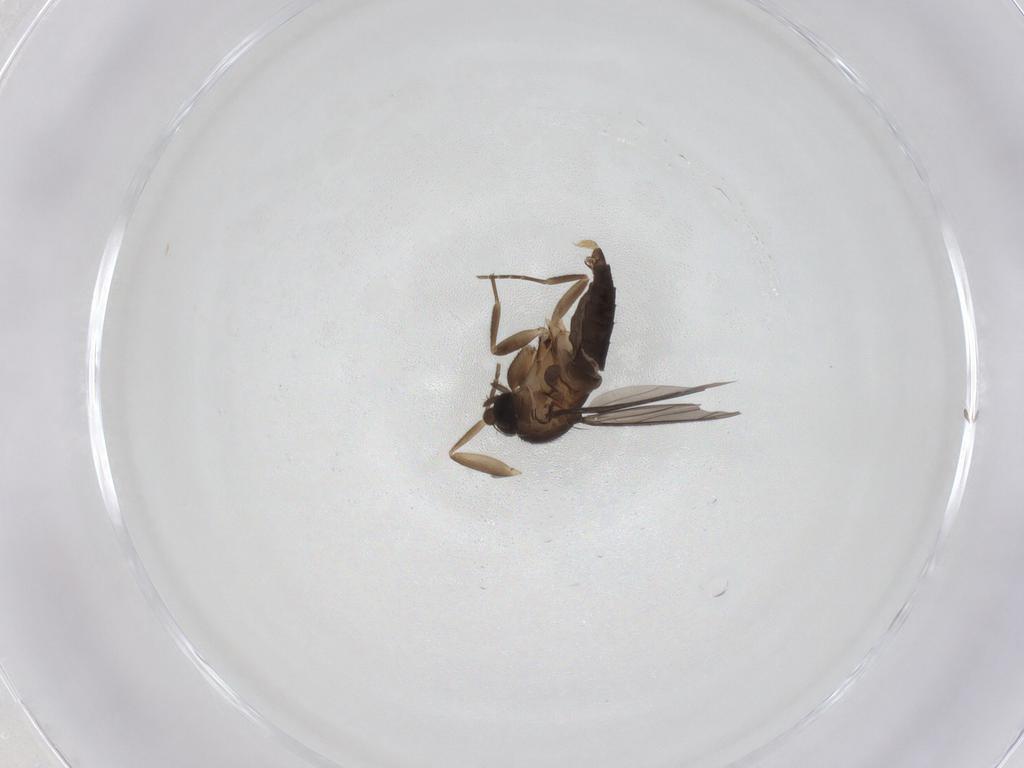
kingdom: Animalia
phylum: Arthropoda
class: Insecta
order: Diptera
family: Phoridae
